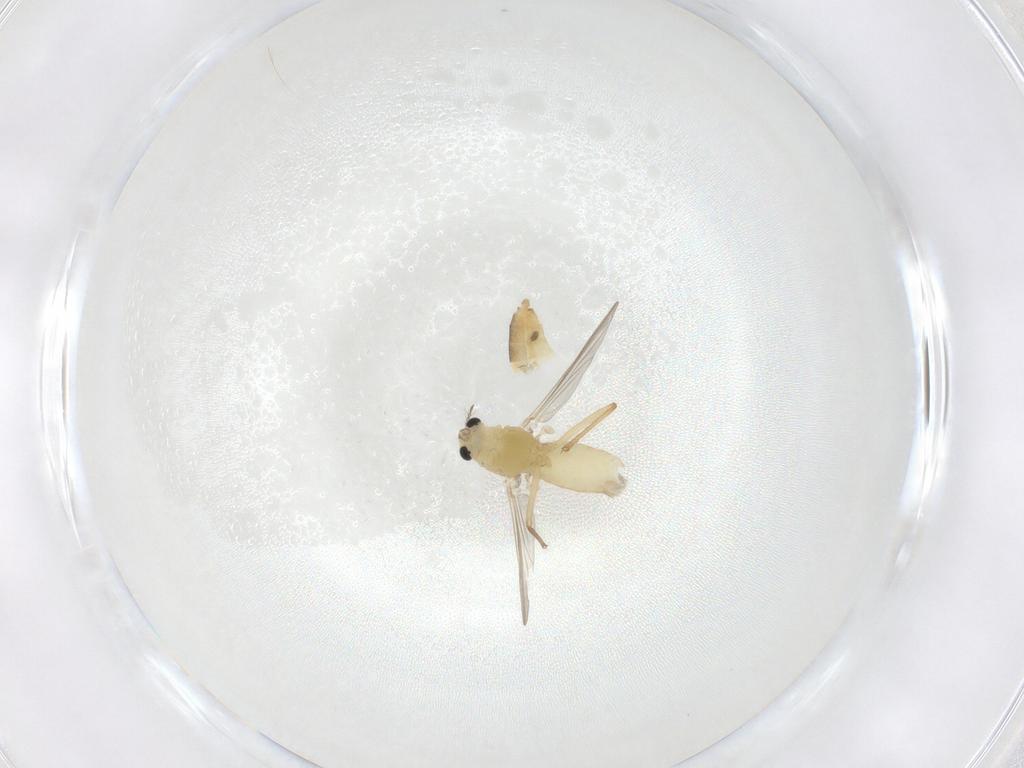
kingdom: Animalia
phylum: Arthropoda
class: Insecta
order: Diptera
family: Chironomidae
